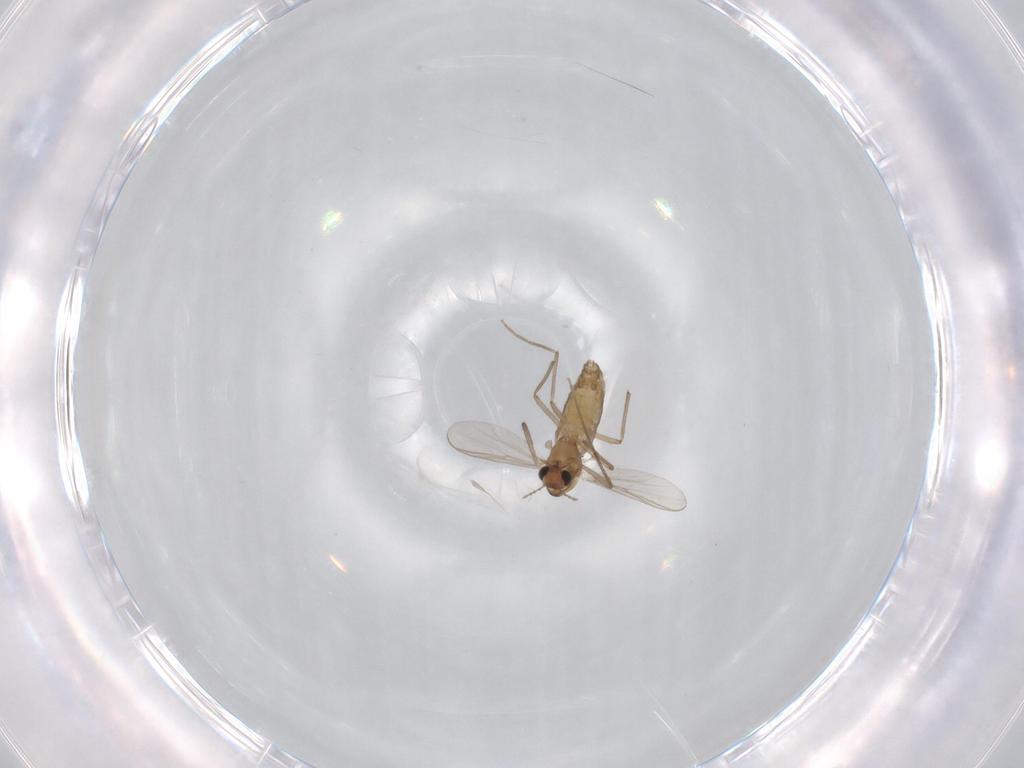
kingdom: Animalia
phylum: Arthropoda
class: Insecta
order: Diptera
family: Chironomidae
